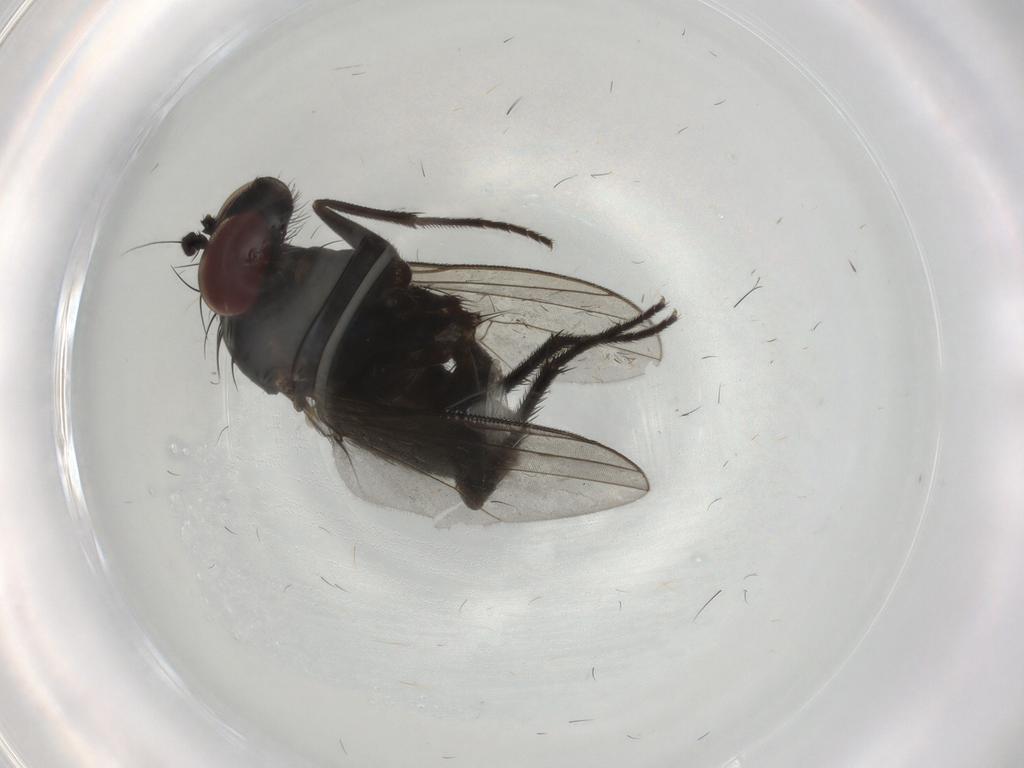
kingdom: Animalia
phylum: Arthropoda
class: Insecta
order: Diptera
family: Dolichopodidae
